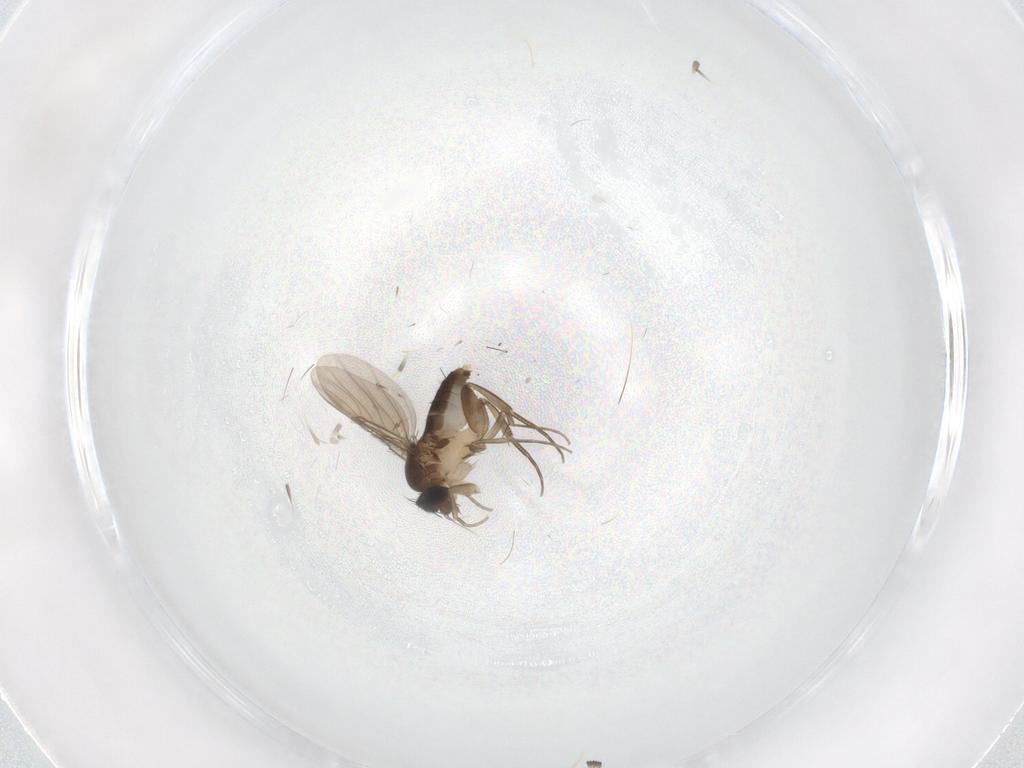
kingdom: Animalia
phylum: Arthropoda
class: Insecta
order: Diptera
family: Phoridae
